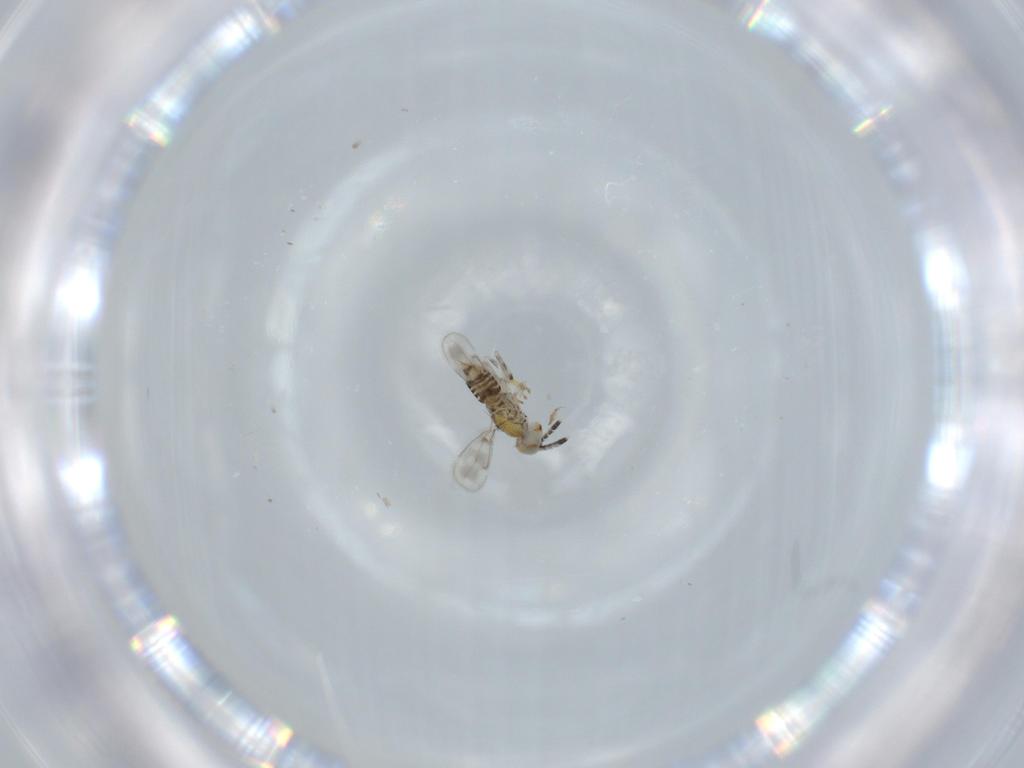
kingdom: Animalia
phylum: Arthropoda
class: Insecta
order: Hymenoptera
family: Aphelinidae
